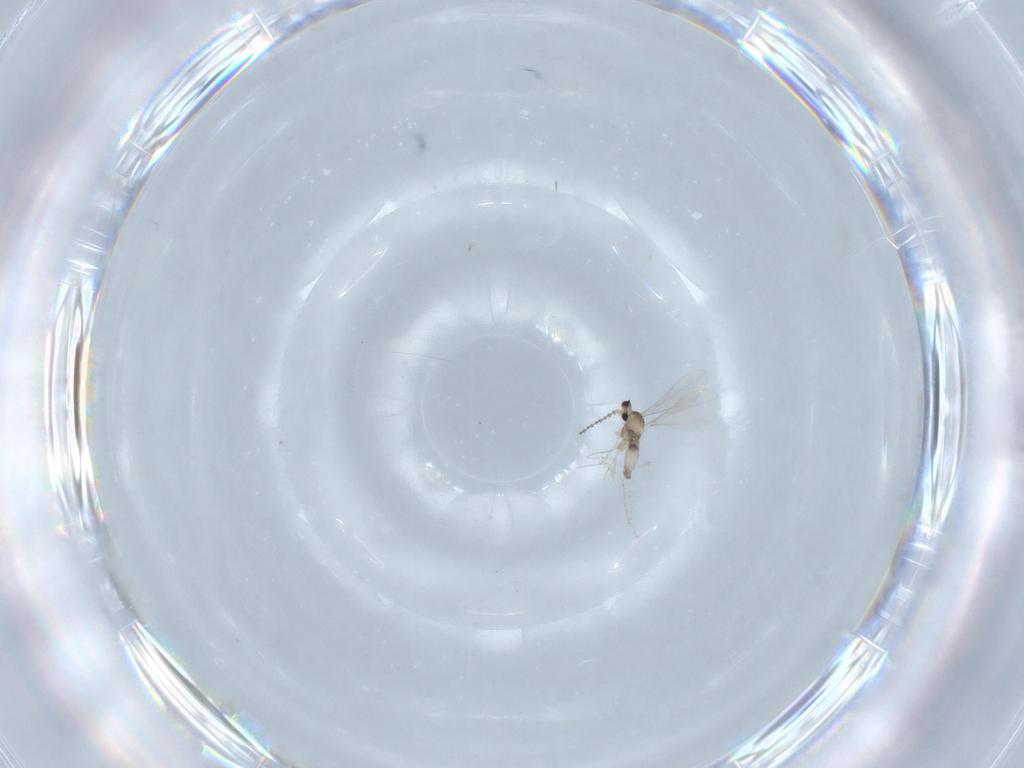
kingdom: Animalia
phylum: Arthropoda
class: Insecta
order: Diptera
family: Cecidomyiidae
